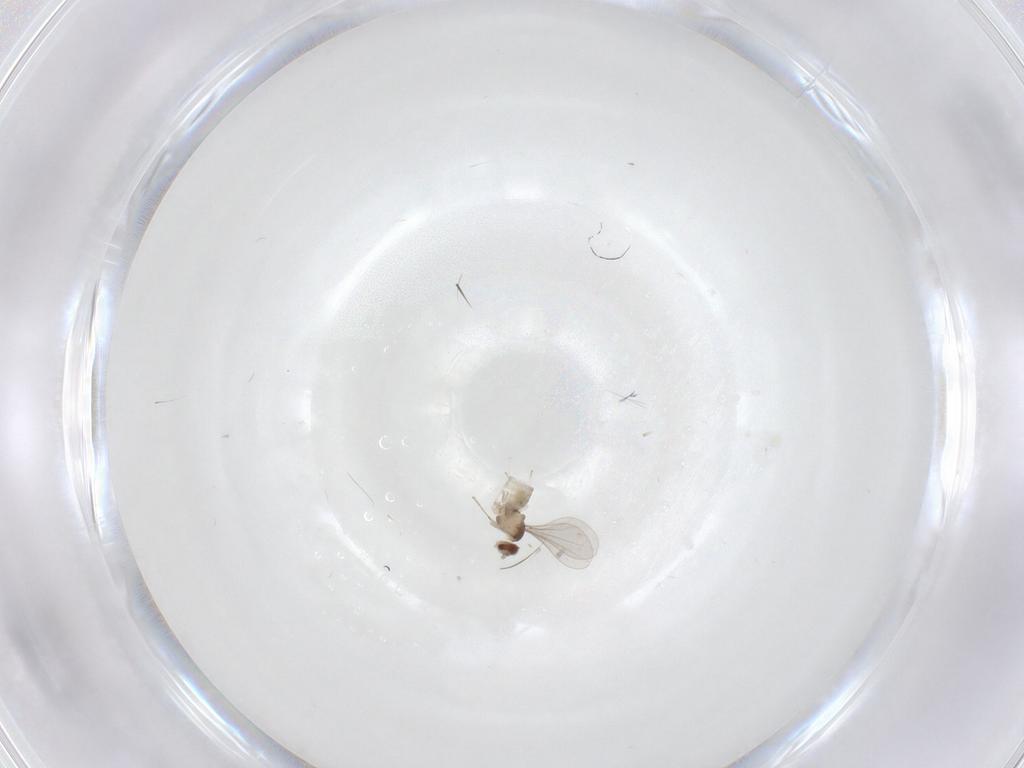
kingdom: Animalia
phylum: Arthropoda
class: Insecta
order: Diptera
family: Cecidomyiidae
